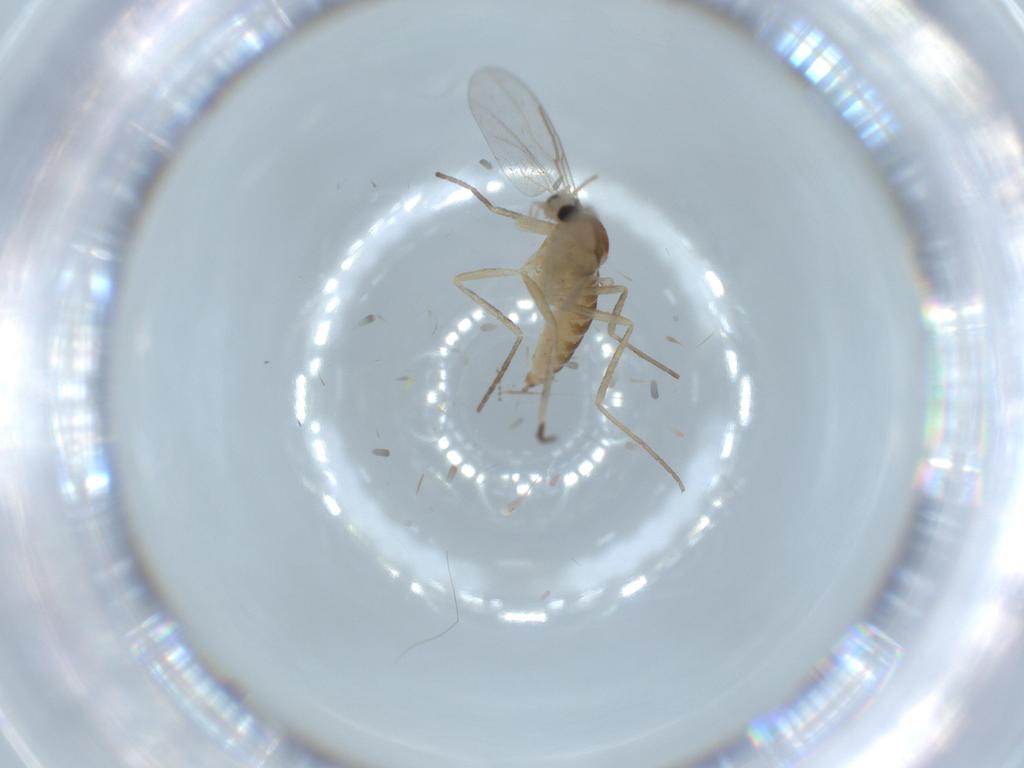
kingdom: Animalia
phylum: Arthropoda
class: Insecta
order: Diptera
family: Cecidomyiidae
